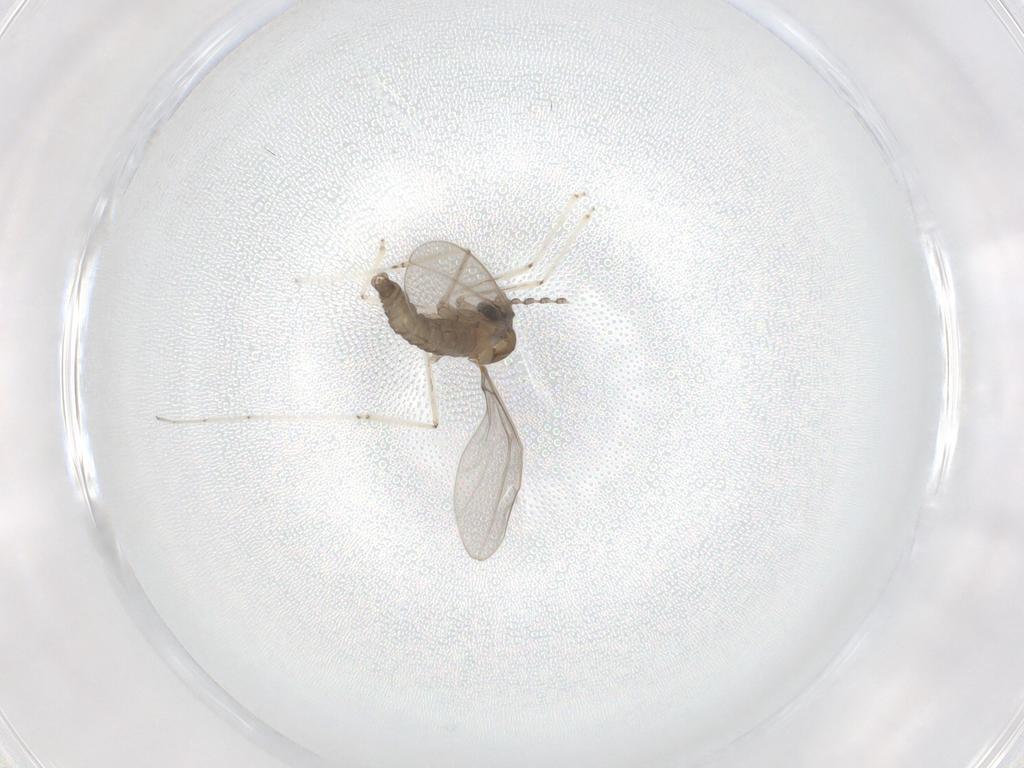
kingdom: Animalia
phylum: Arthropoda
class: Insecta
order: Diptera
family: Cecidomyiidae
